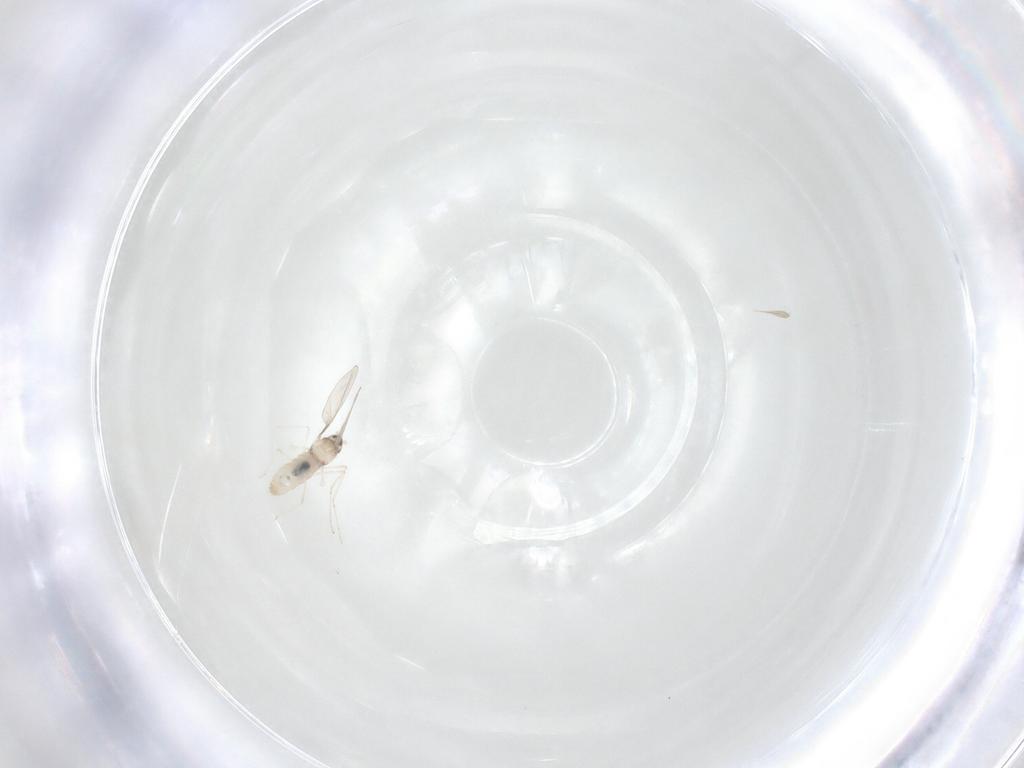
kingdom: Animalia
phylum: Arthropoda
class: Insecta
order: Diptera
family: Cecidomyiidae
